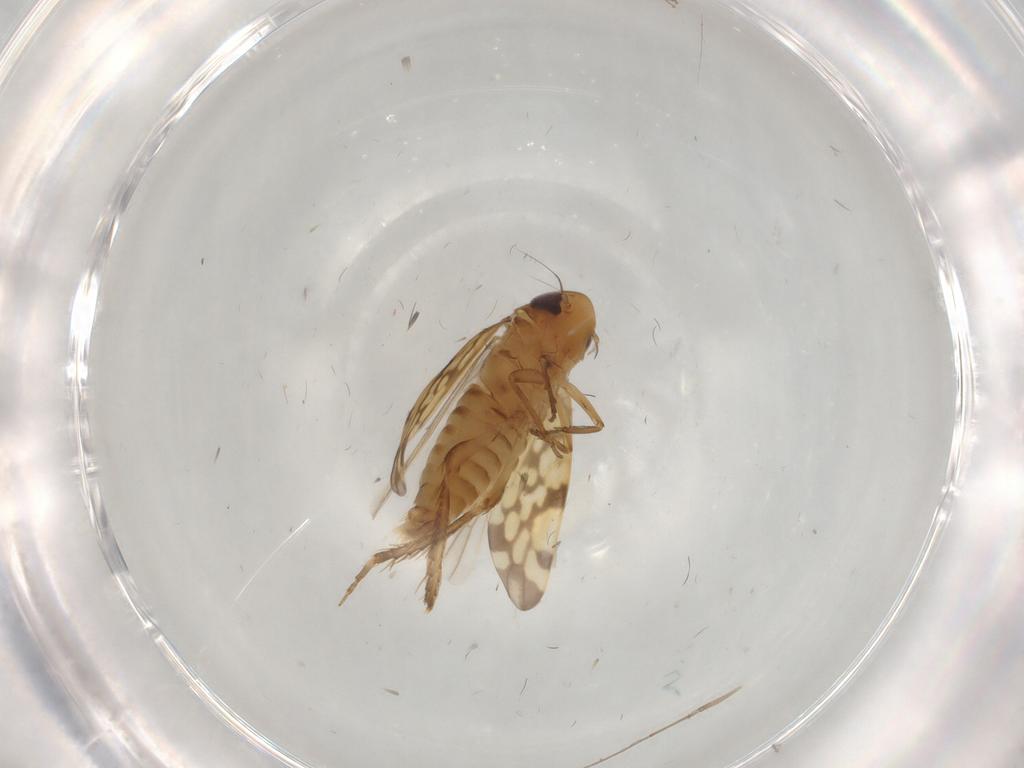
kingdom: Animalia
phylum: Arthropoda
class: Insecta
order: Hemiptera
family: Cicadellidae
